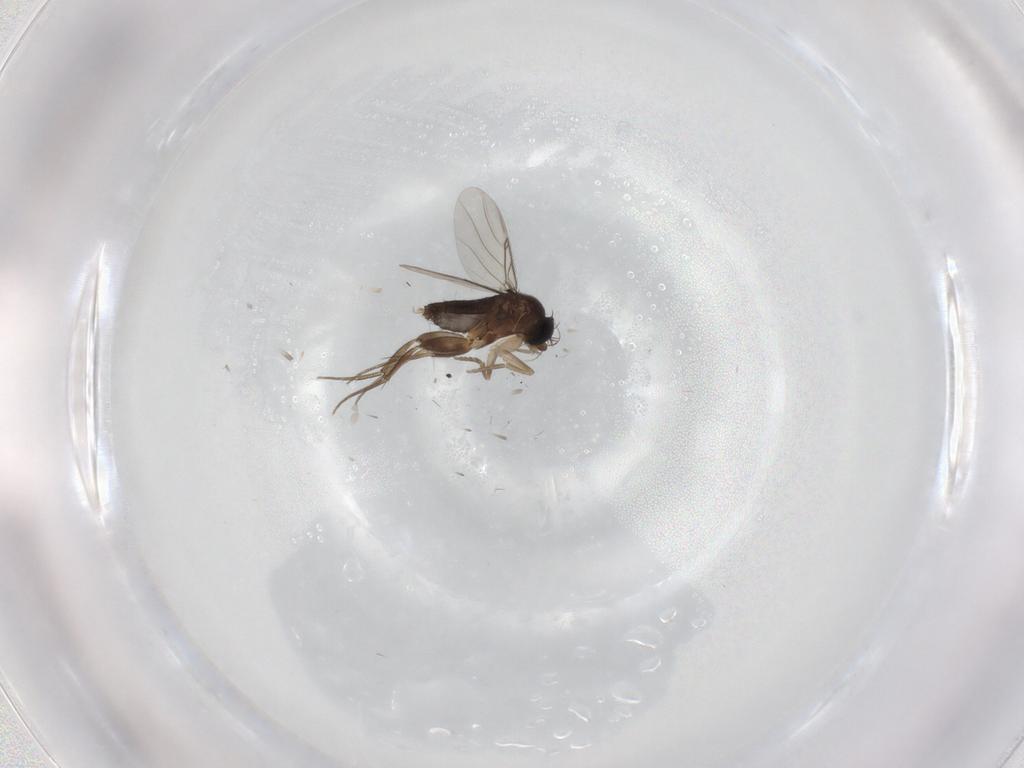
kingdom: Animalia
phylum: Arthropoda
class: Insecta
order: Diptera
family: Phoridae
